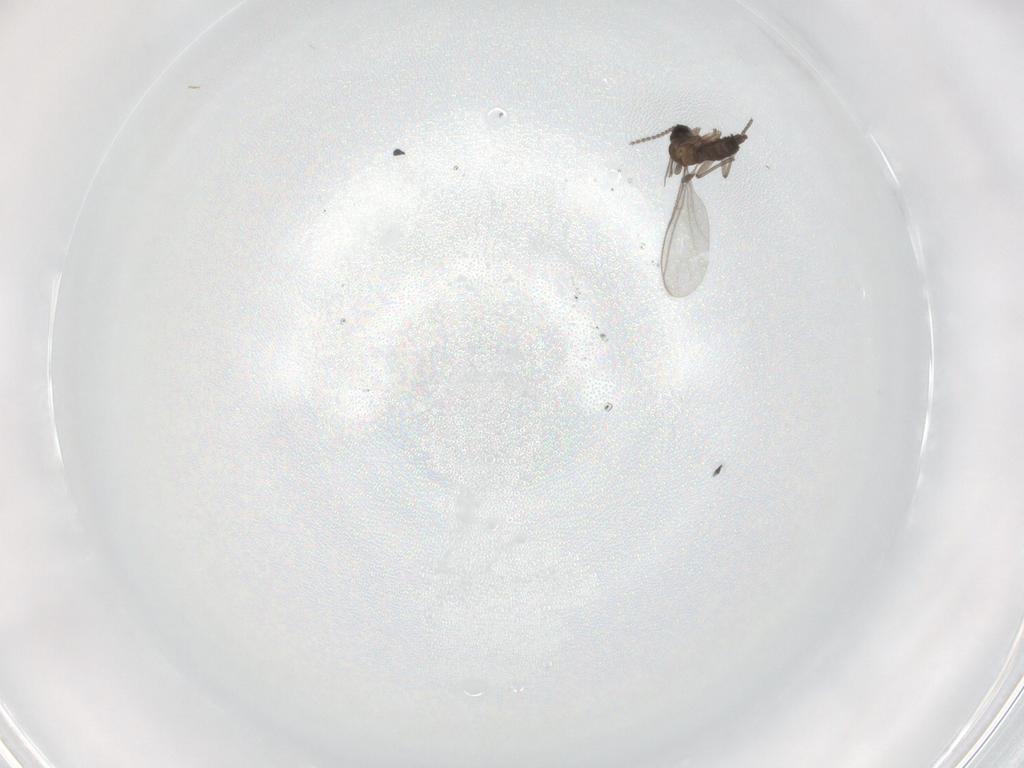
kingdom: Animalia
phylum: Arthropoda
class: Insecta
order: Diptera
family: Sciaridae
